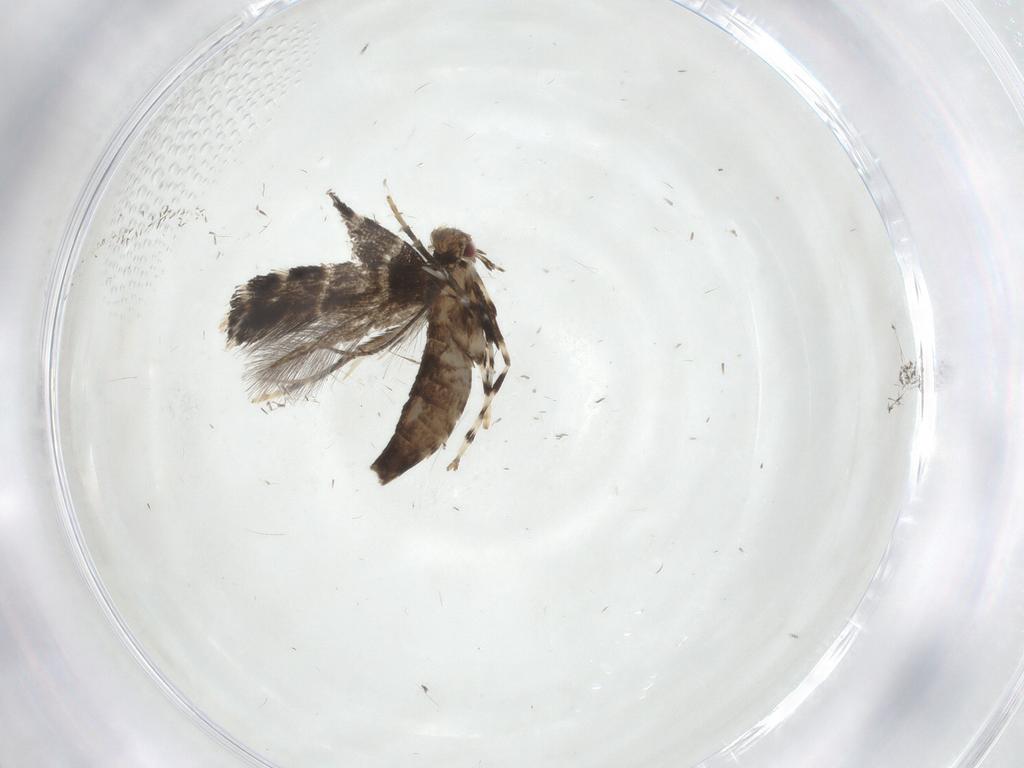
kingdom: Animalia
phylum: Arthropoda
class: Insecta
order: Lepidoptera
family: Gracillariidae
